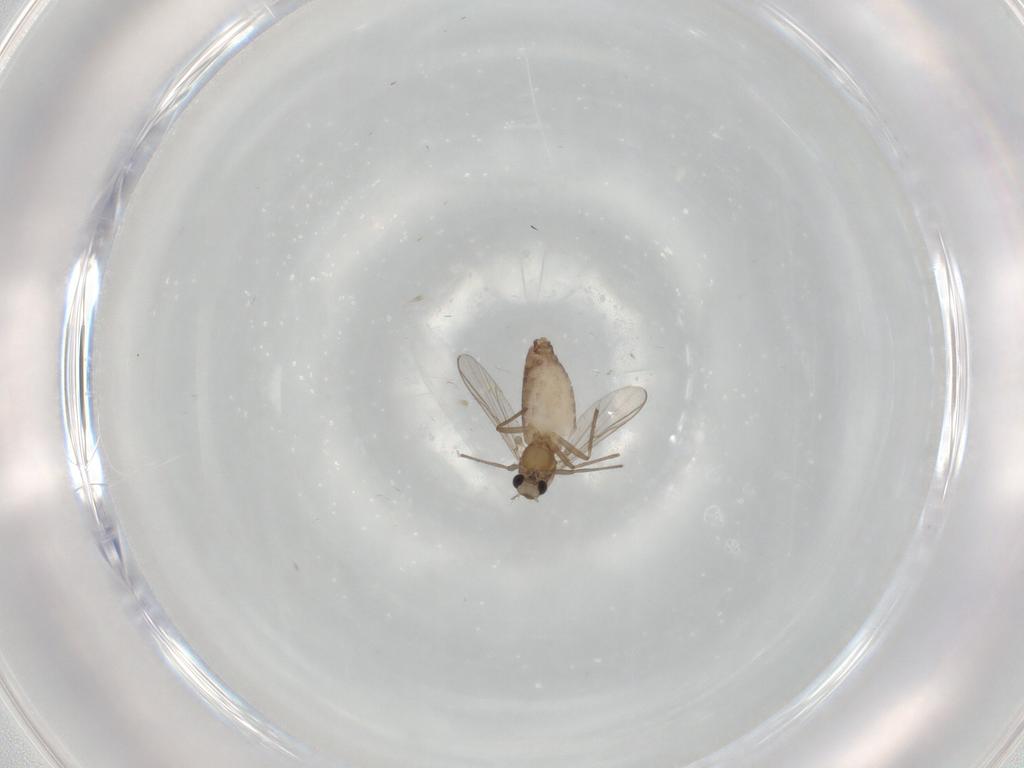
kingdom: Animalia
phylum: Arthropoda
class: Insecta
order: Diptera
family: Chironomidae
